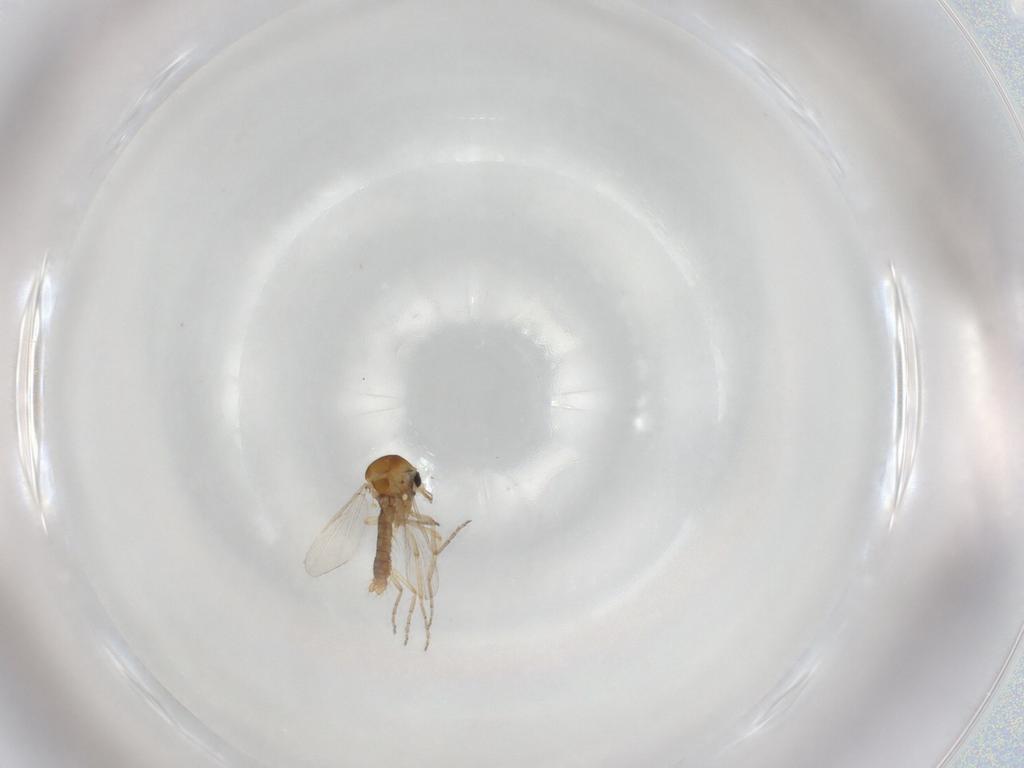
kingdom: Animalia
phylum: Arthropoda
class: Insecta
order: Diptera
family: Ceratopogonidae
